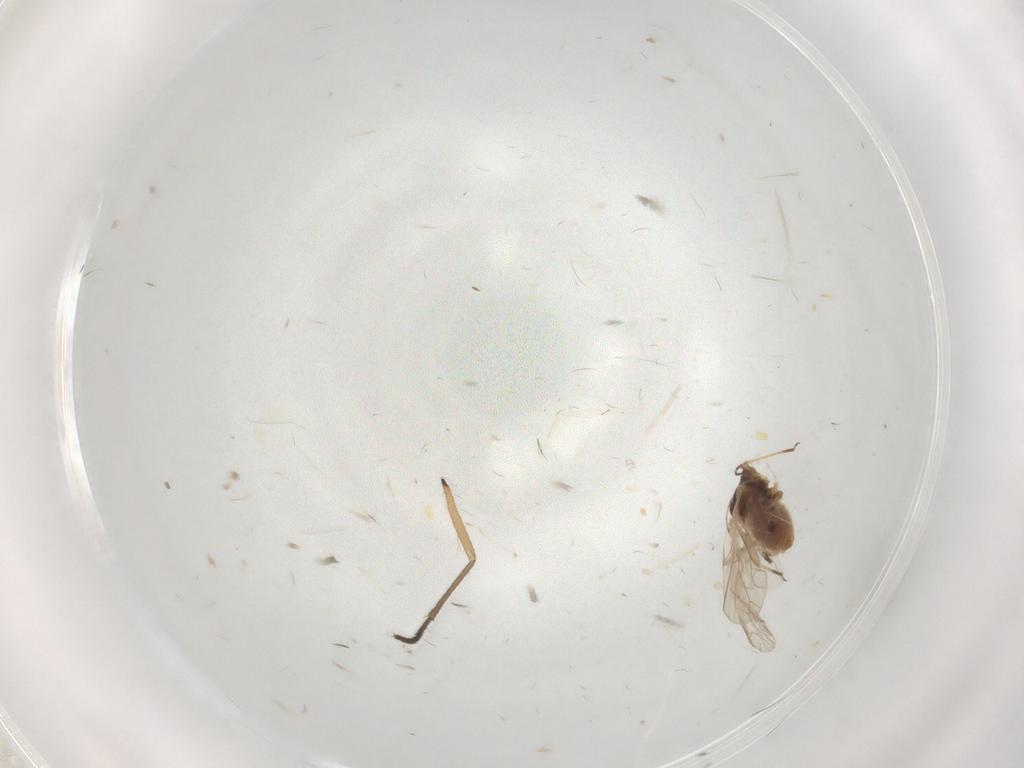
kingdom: Animalia
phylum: Arthropoda
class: Insecta
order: Hemiptera
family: Aphididae
